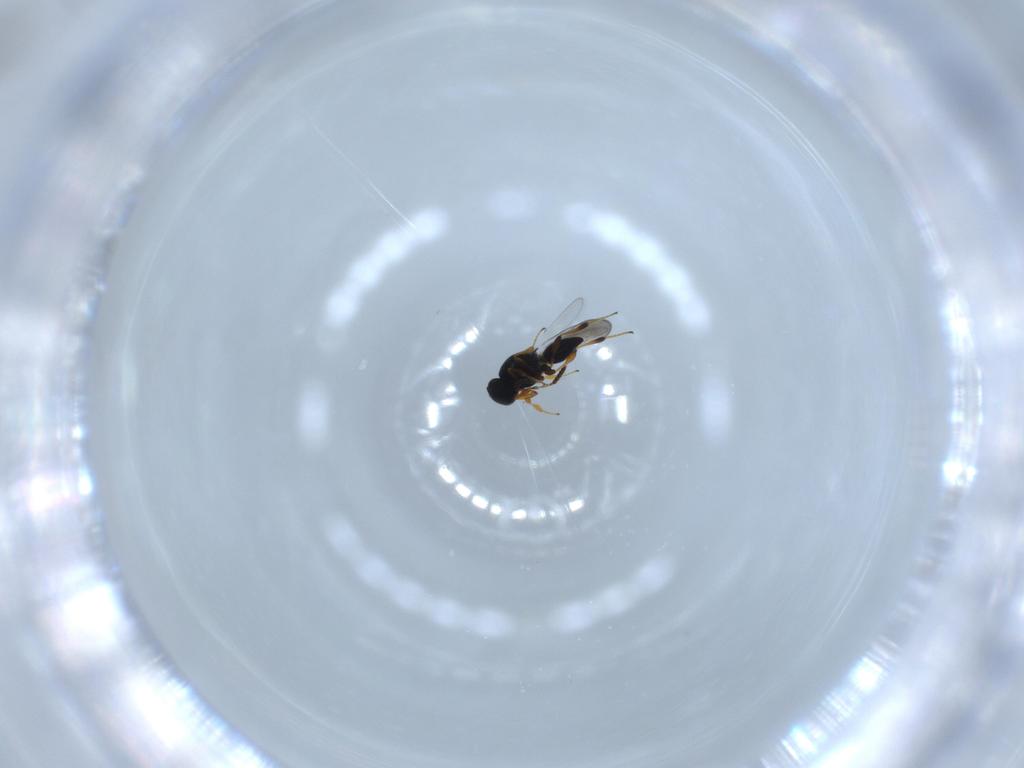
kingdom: Animalia
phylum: Arthropoda
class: Insecta
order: Hymenoptera
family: Platygastridae
